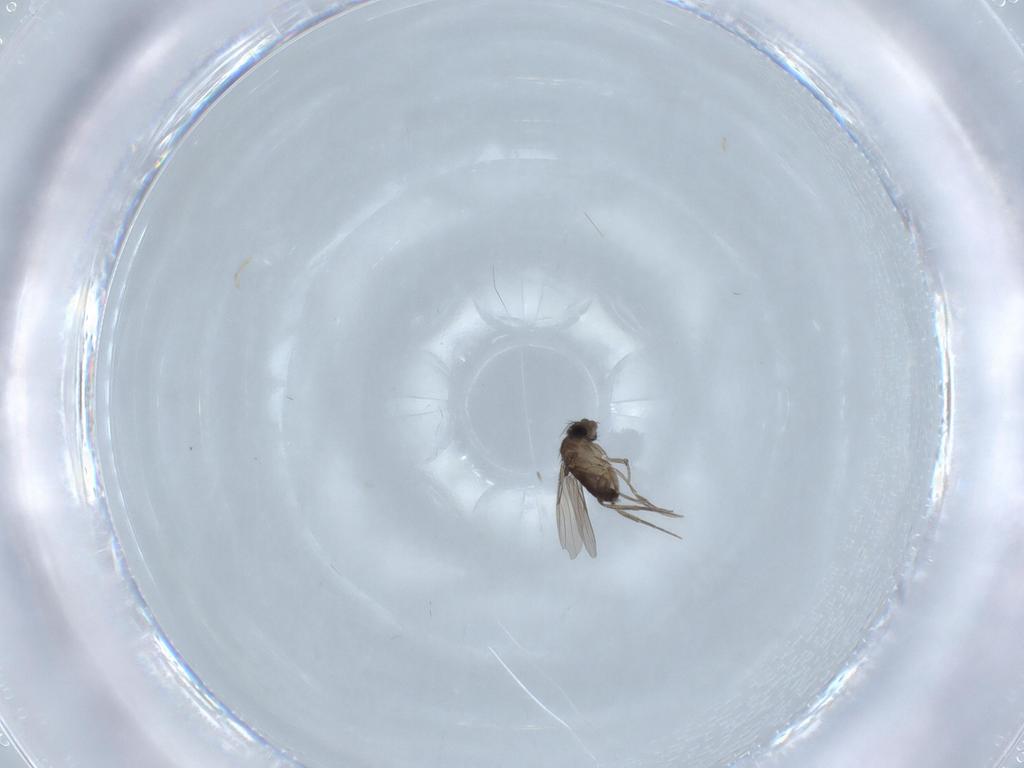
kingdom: Animalia
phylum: Arthropoda
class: Insecta
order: Diptera
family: Phoridae
